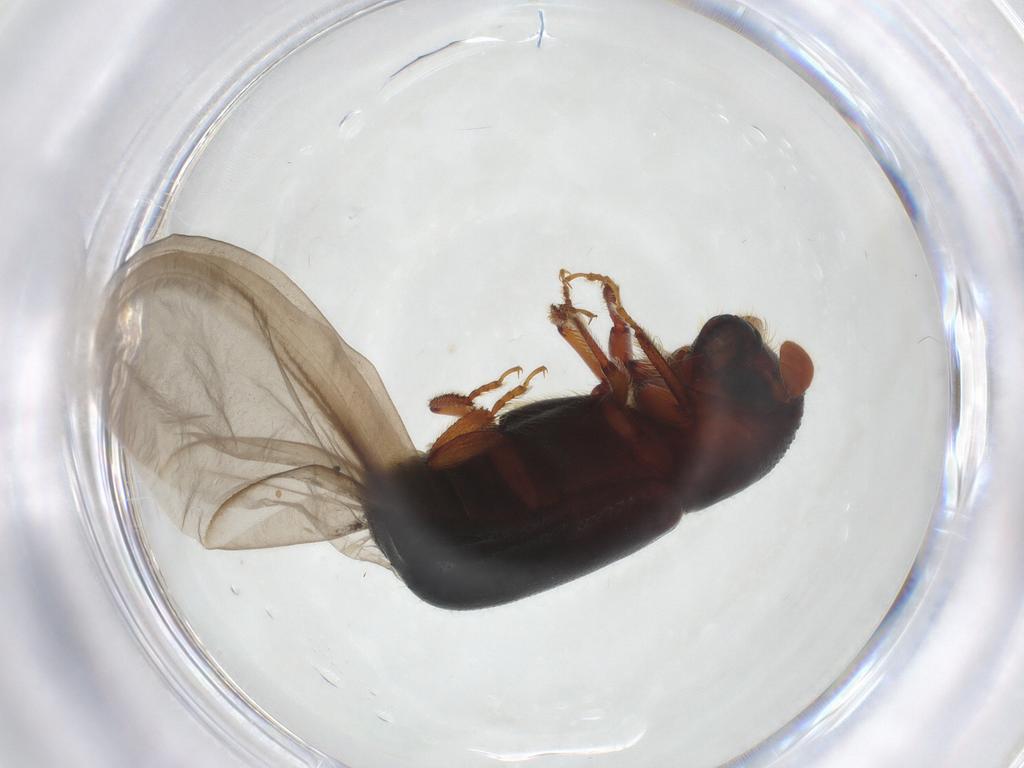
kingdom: Animalia
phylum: Arthropoda
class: Insecta
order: Coleoptera
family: Curculionidae
